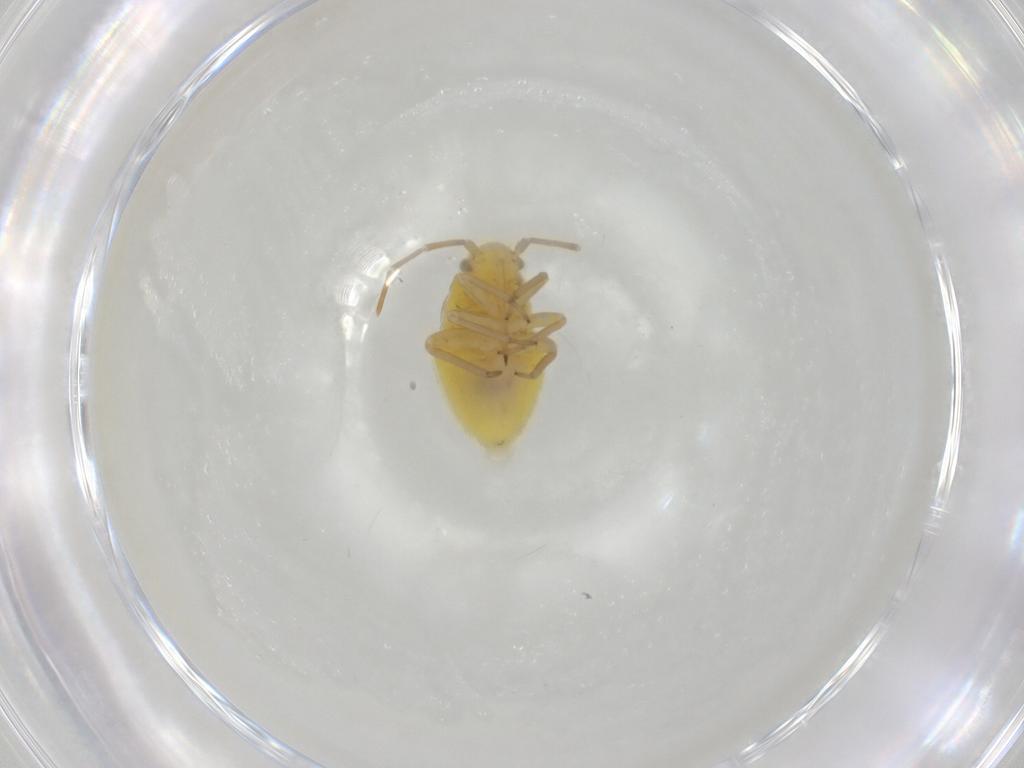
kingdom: Animalia
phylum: Arthropoda
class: Insecta
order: Hemiptera
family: Miridae
